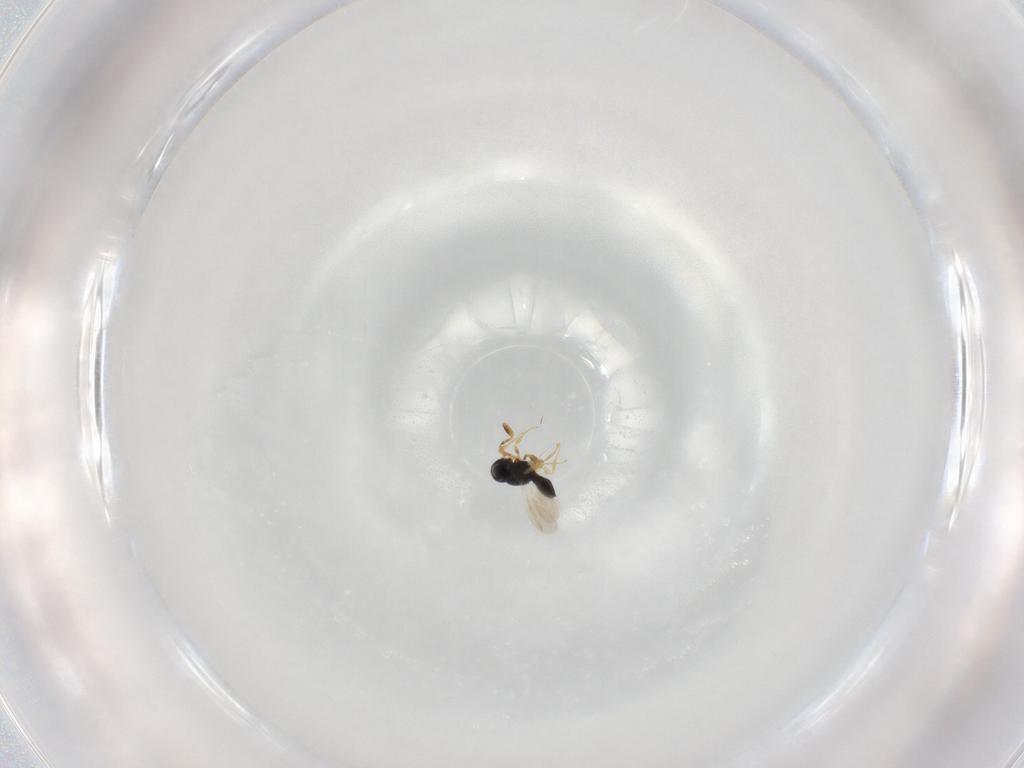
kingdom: Animalia
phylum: Arthropoda
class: Insecta
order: Hymenoptera
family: Scelionidae
